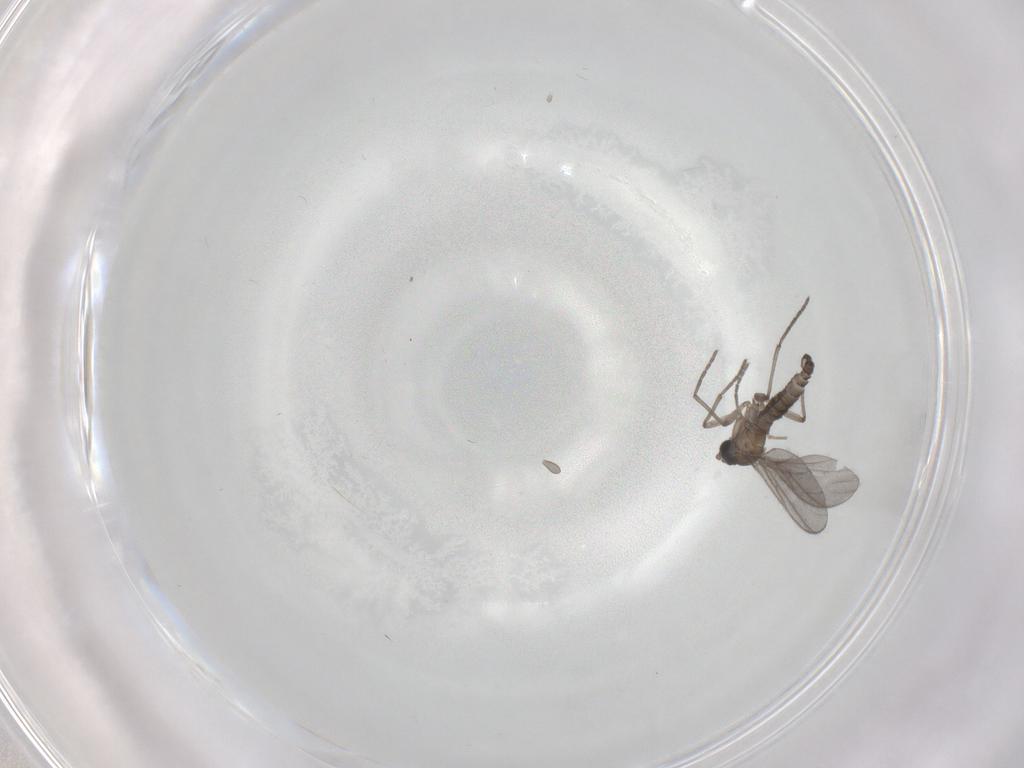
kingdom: Animalia
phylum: Arthropoda
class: Insecta
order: Diptera
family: Sciaridae
